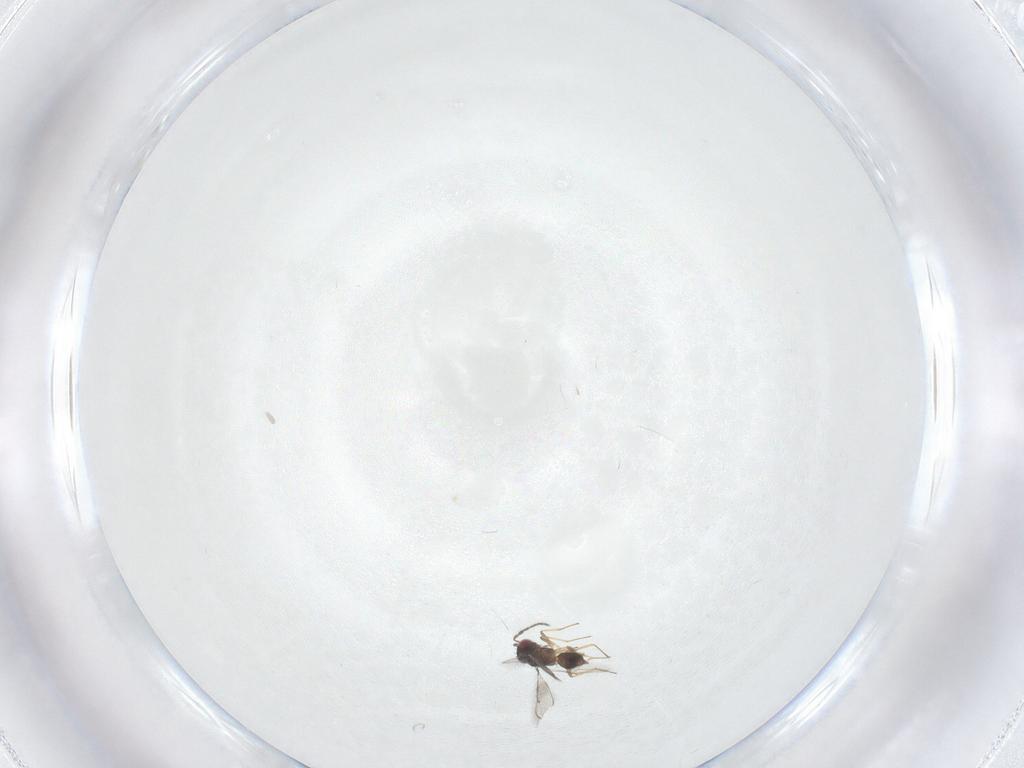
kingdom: Animalia
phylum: Arthropoda
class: Insecta
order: Hymenoptera
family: Eulophidae
